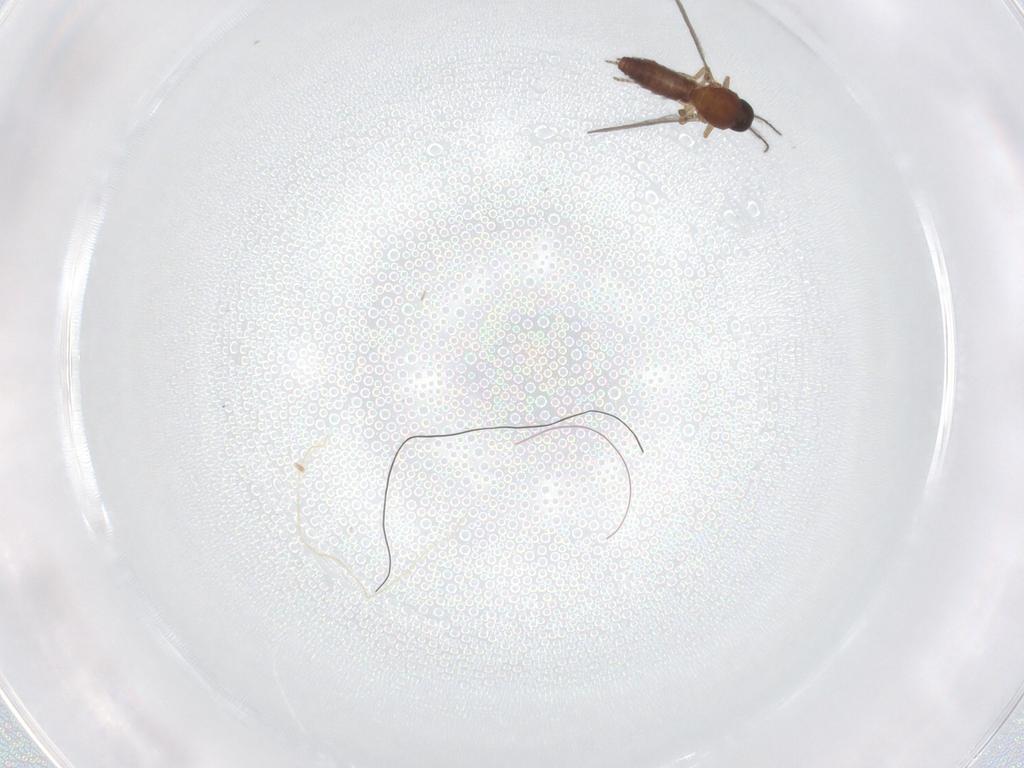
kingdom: Animalia
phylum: Arthropoda
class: Insecta
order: Diptera
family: Ceratopogonidae
